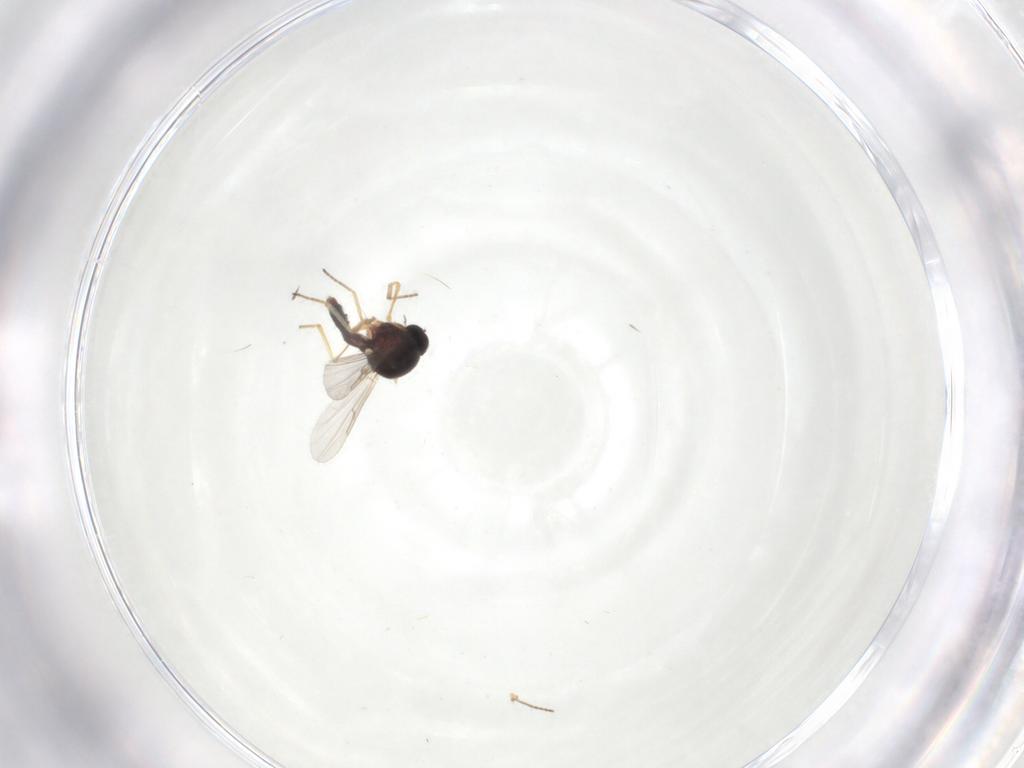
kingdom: Animalia
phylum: Arthropoda
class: Insecta
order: Diptera
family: Ceratopogonidae
